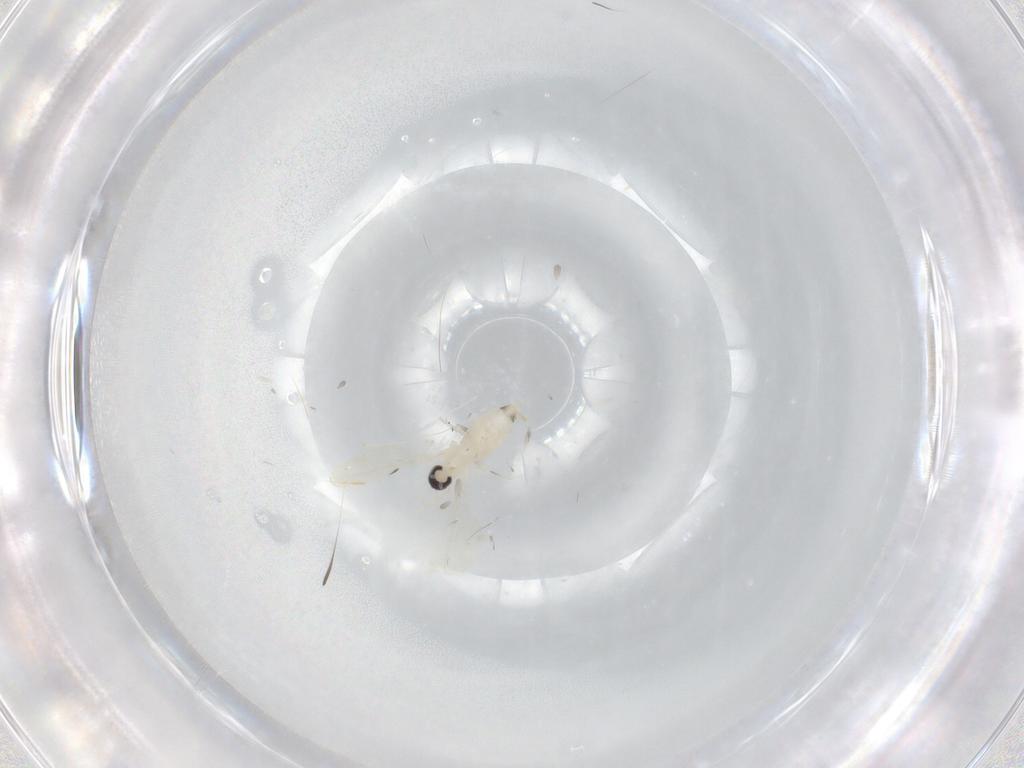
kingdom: Animalia
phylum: Arthropoda
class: Insecta
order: Diptera
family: Cecidomyiidae
